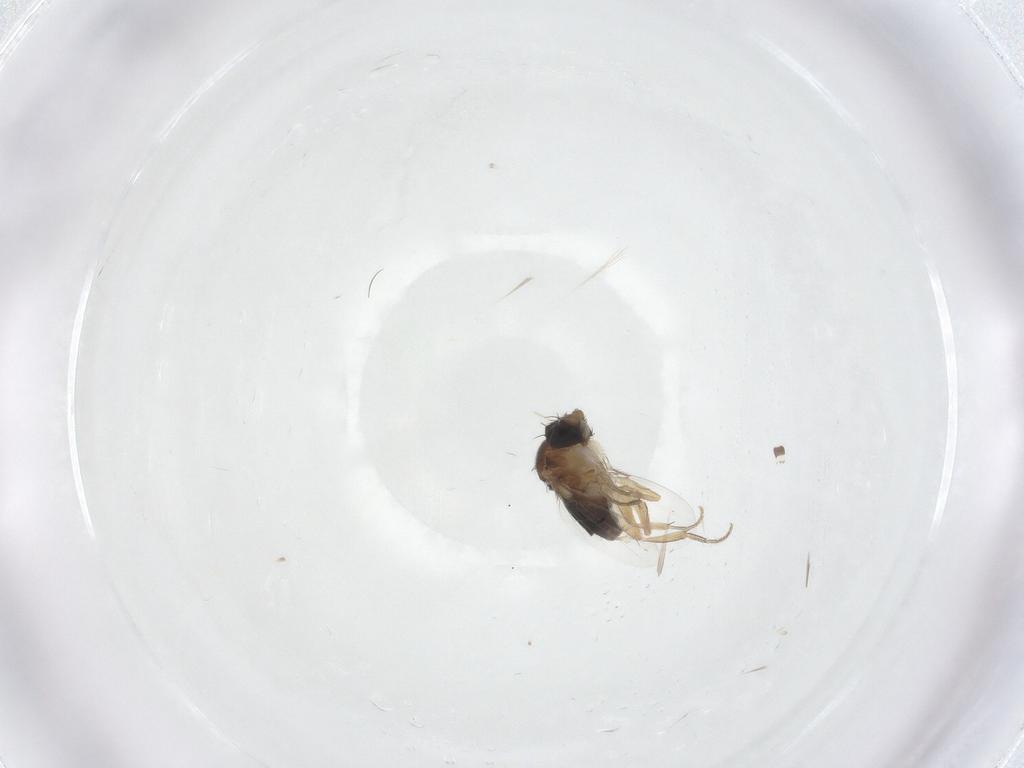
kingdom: Animalia
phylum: Arthropoda
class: Insecta
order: Diptera
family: Phoridae
